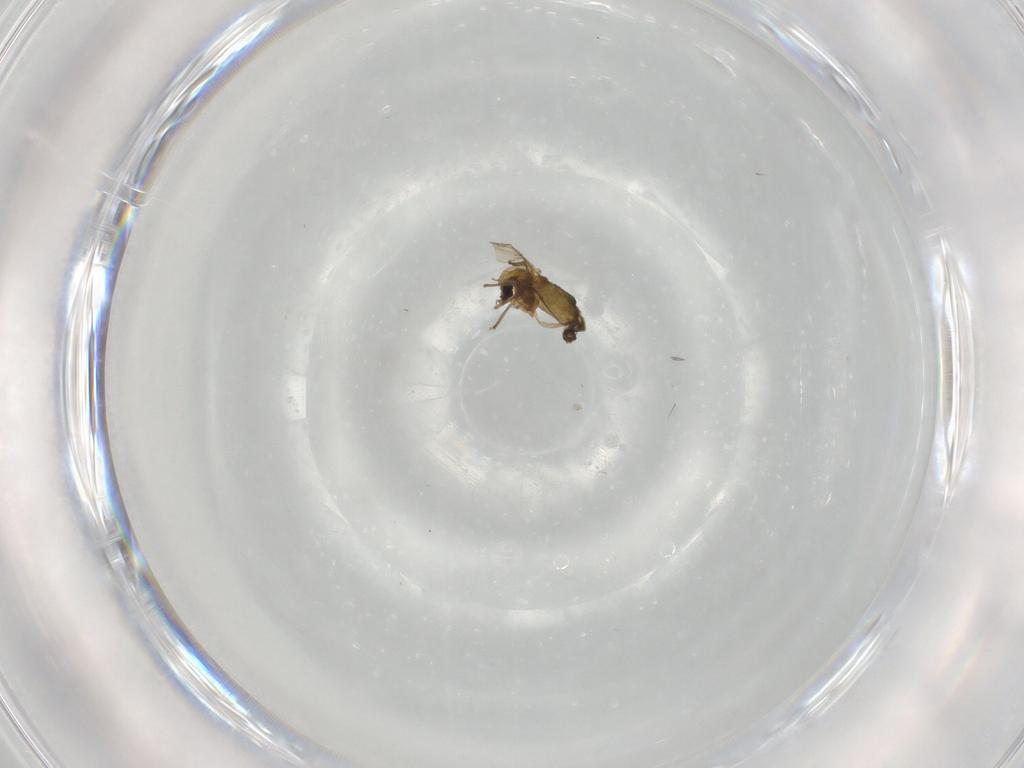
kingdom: Animalia
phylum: Arthropoda
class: Insecta
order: Diptera
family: Chironomidae
